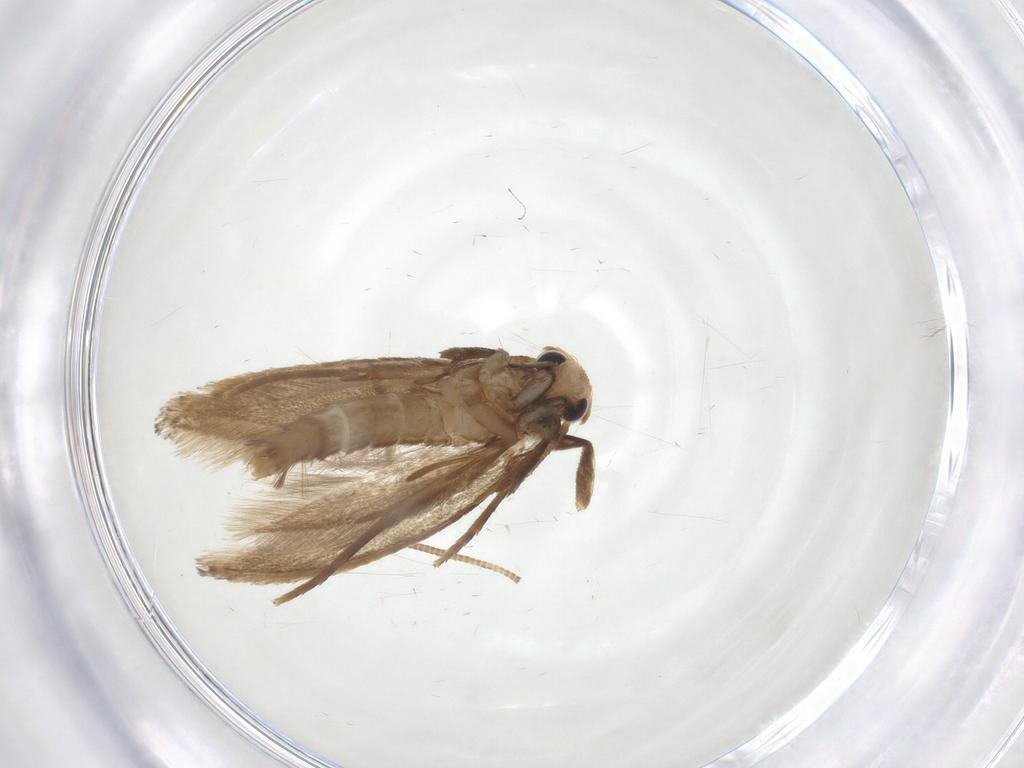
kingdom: Animalia
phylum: Arthropoda
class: Insecta
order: Lepidoptera
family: Tineidae
